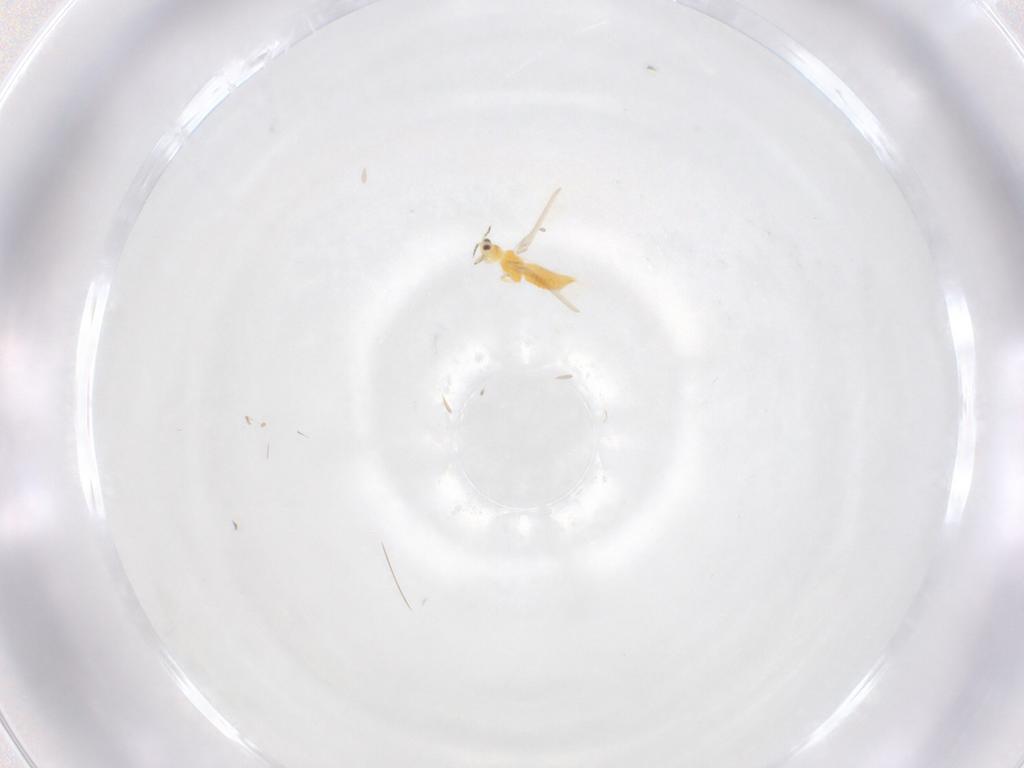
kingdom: Animalia
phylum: Arthropoda
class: Insecta
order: Thysanoptera
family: Thripidae
